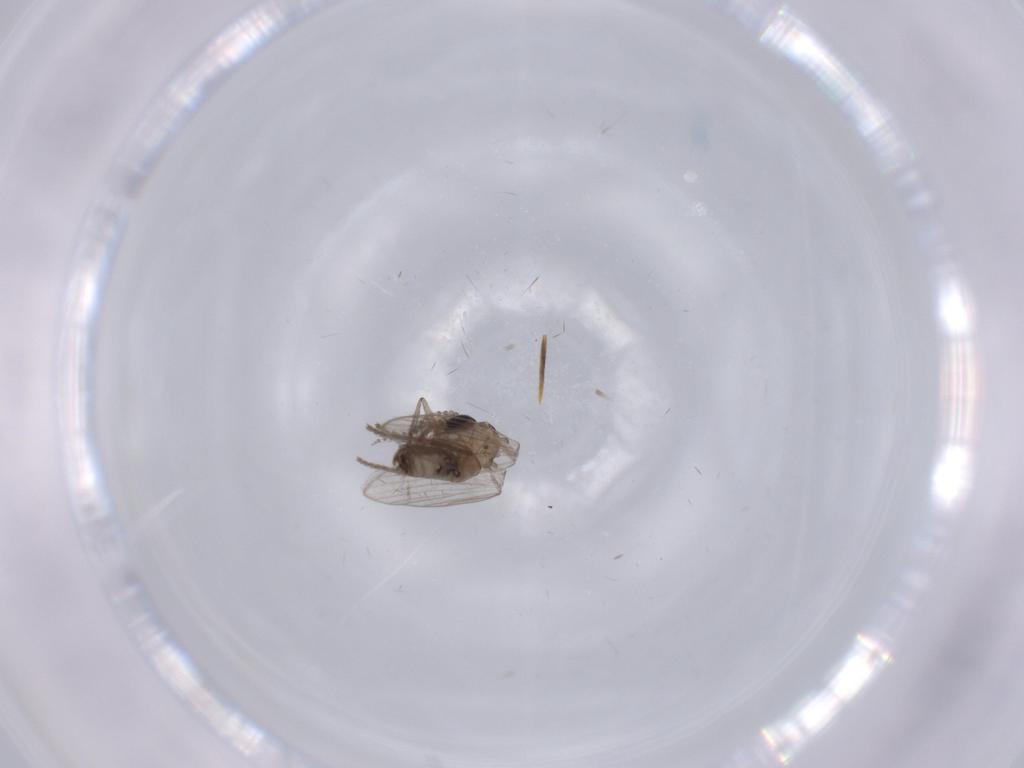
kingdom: Animalia
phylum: Arthropoda
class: Insecta
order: Diptera
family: Psychodidae
